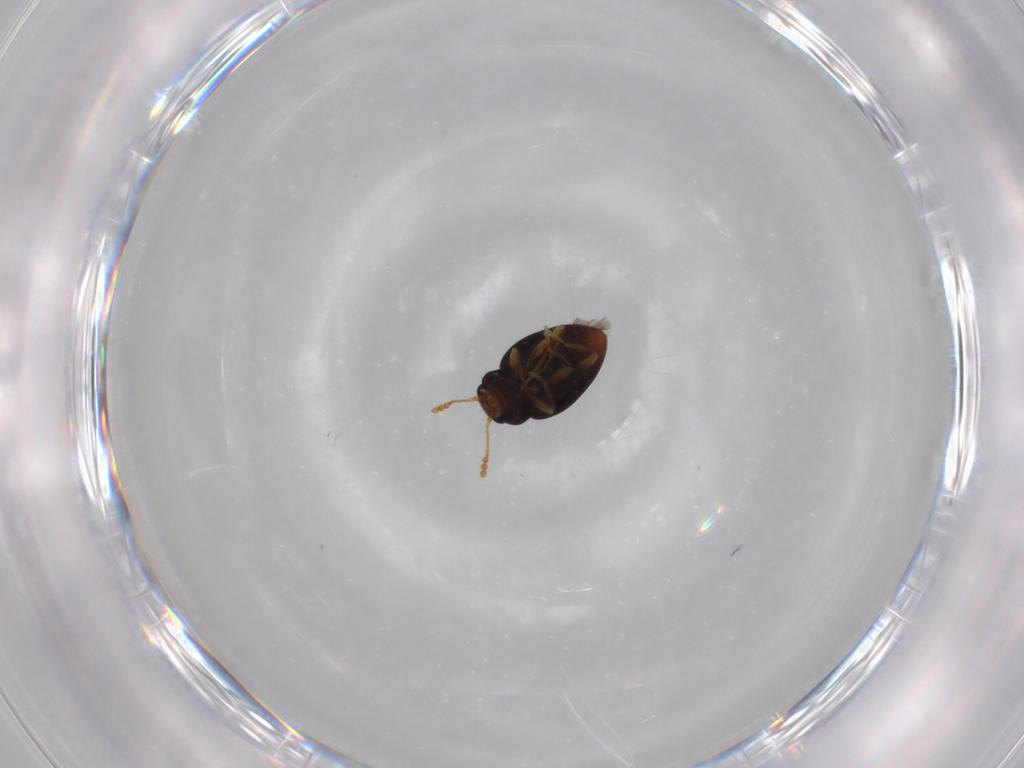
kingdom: Animalia
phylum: Arthropoda
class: Insecta
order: Coleoptera
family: Erotylidae
